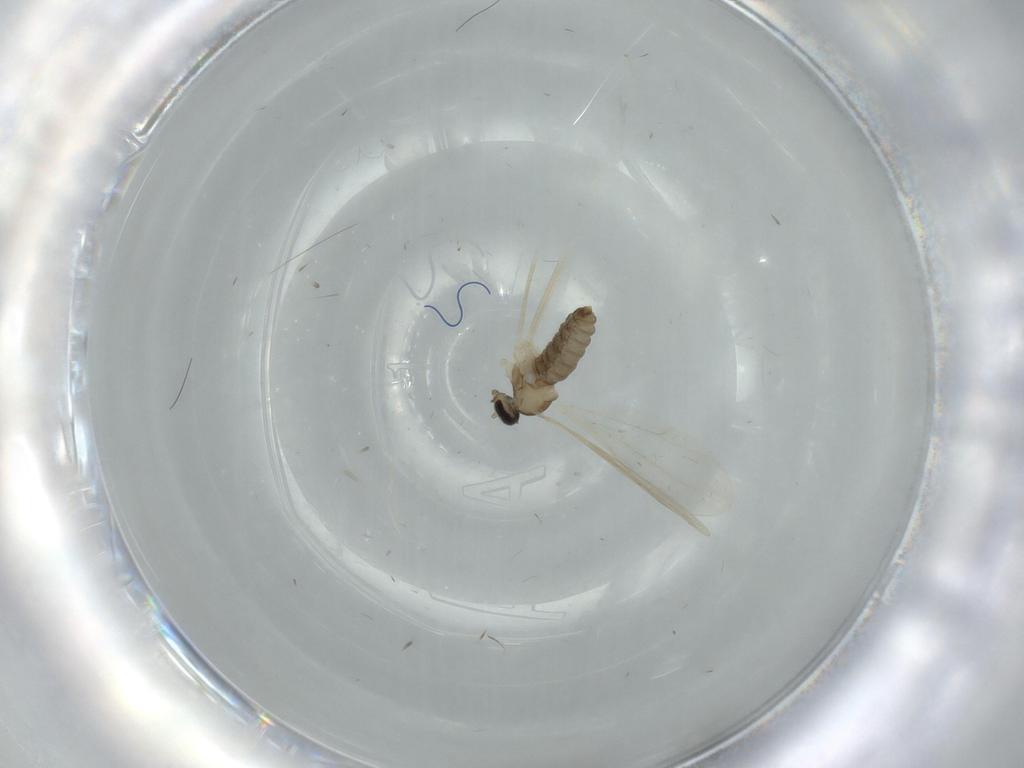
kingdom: Animalia
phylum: Arthropoda
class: Insecta
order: Diptera
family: Cecidomyiidae
